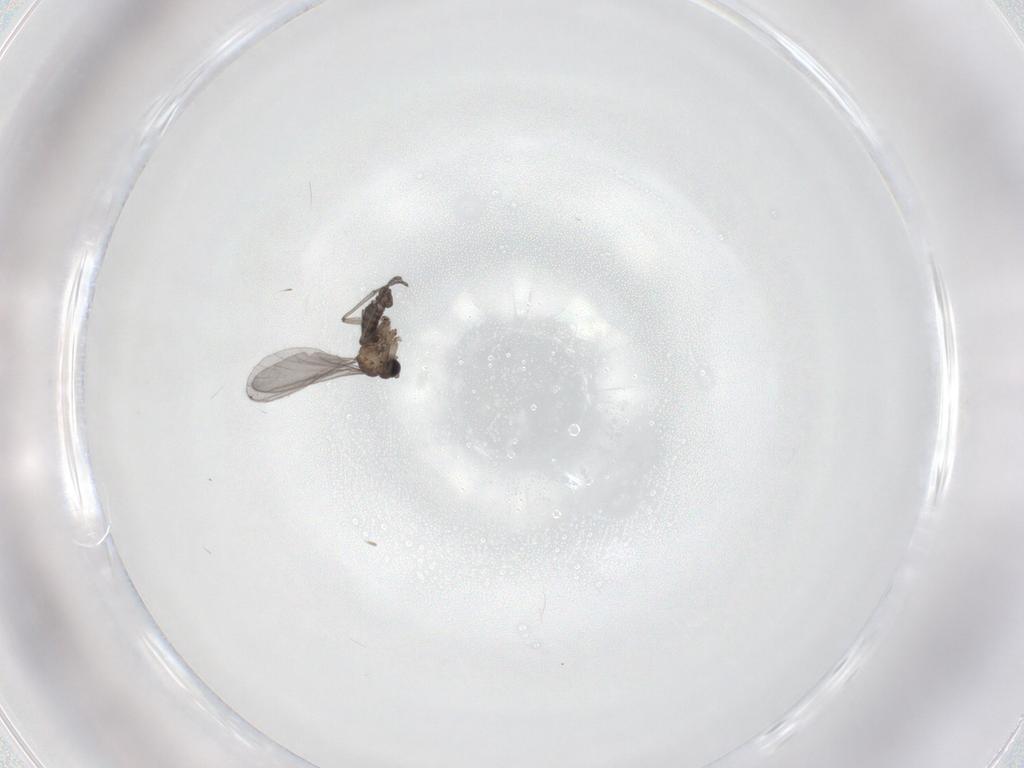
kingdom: Animalia
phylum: Arthropoda
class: Insecta
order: Diptera
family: Sciaridae
